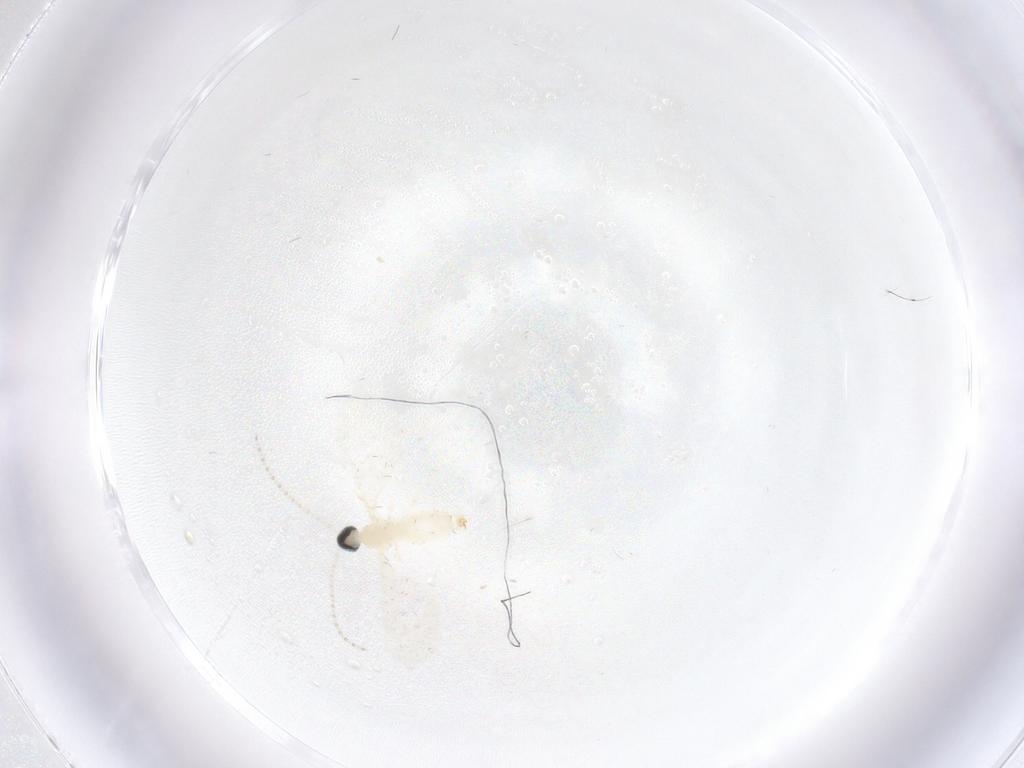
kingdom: Animalia
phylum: Arthropoda
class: Insecta
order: Diptera
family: Cecidomyiidae
